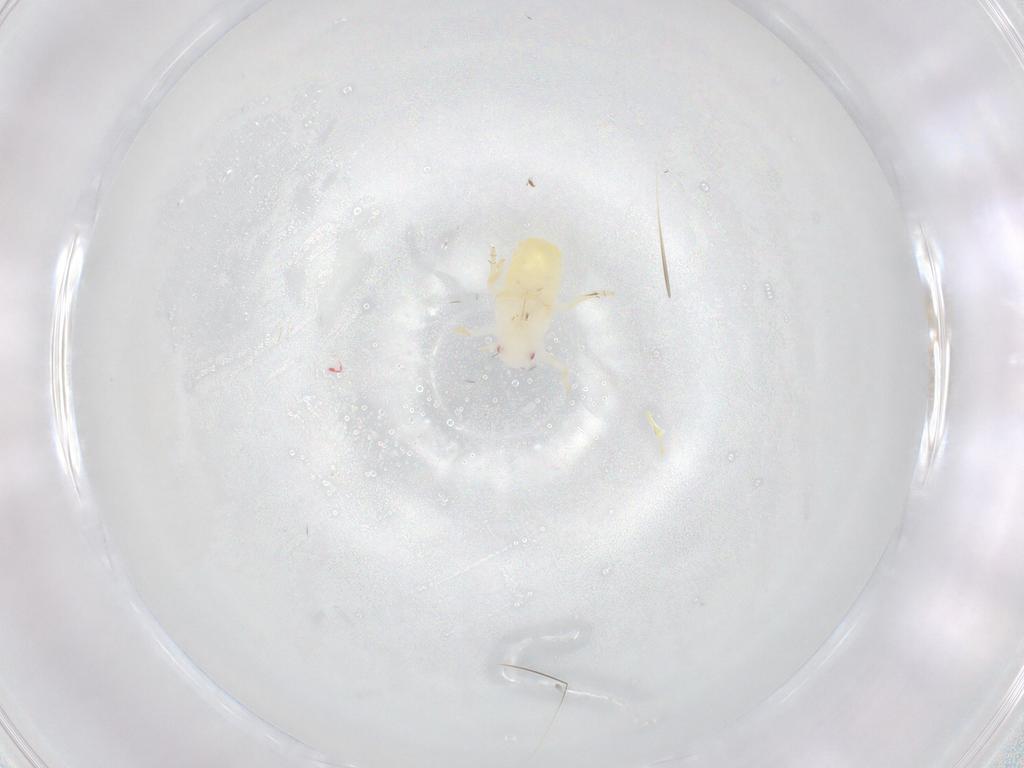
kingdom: Animalia
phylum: Arthropoda
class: Insecta
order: Hemiptera
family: Flatidae
